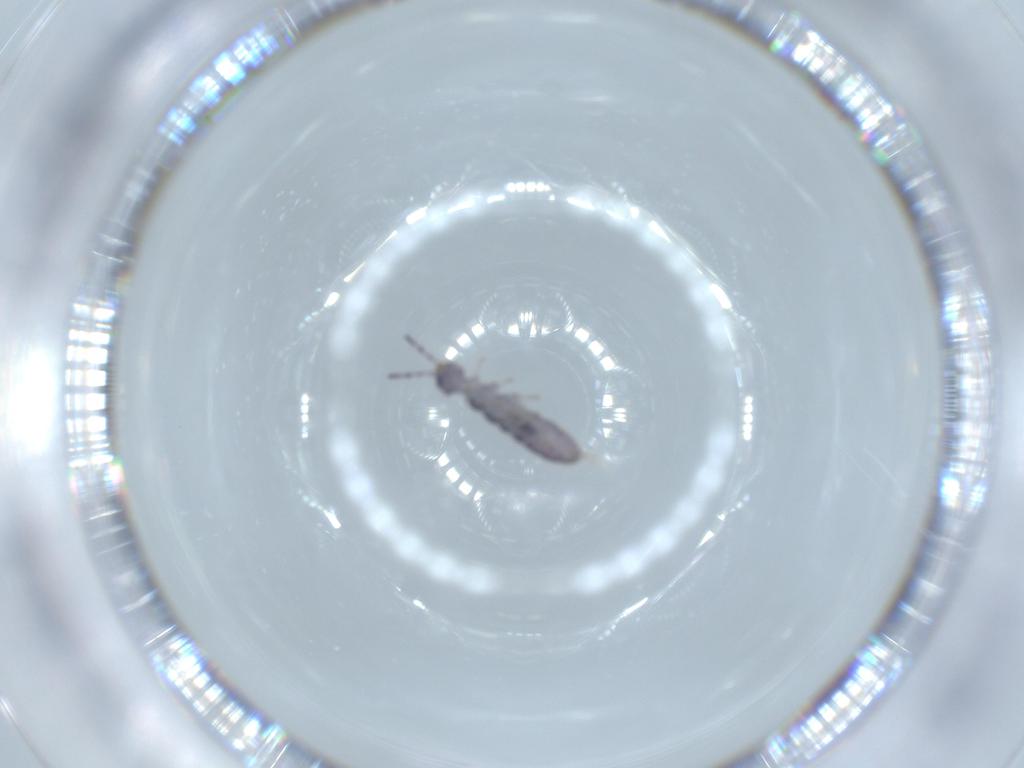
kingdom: Animalia
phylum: Arthropoda
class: Collembola
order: Entomobryomorpha
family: Isotomidae
